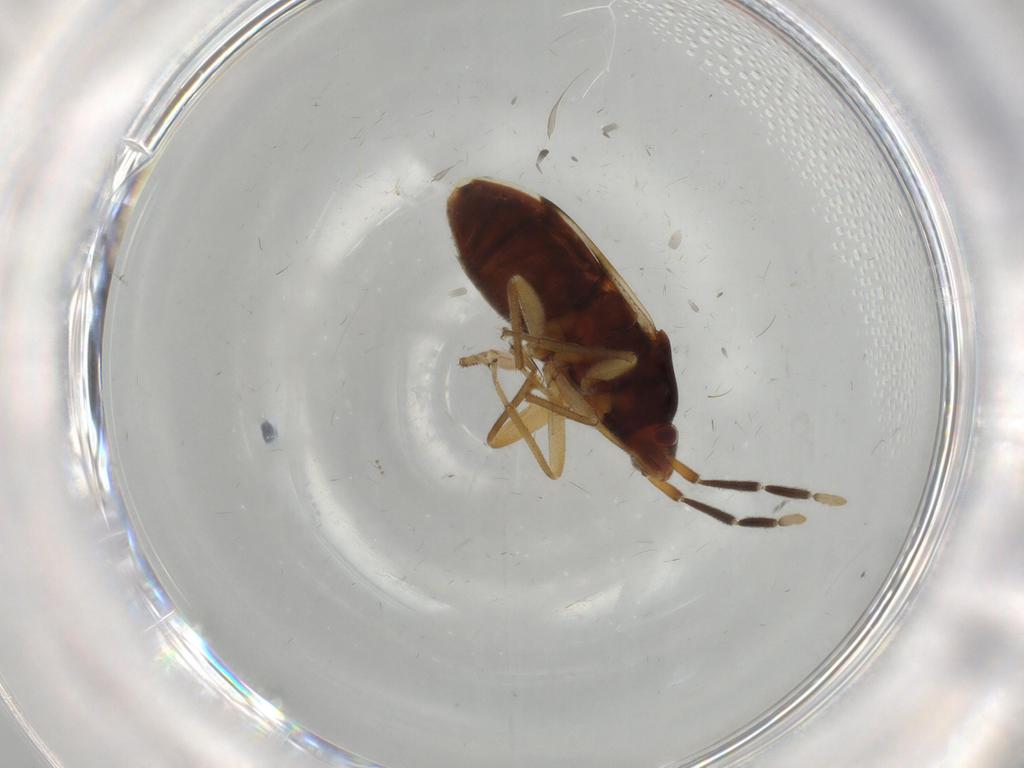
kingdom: Animalia
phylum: Arthropoda
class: Insecta
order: Hemiptera
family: Rhyparochromidae
